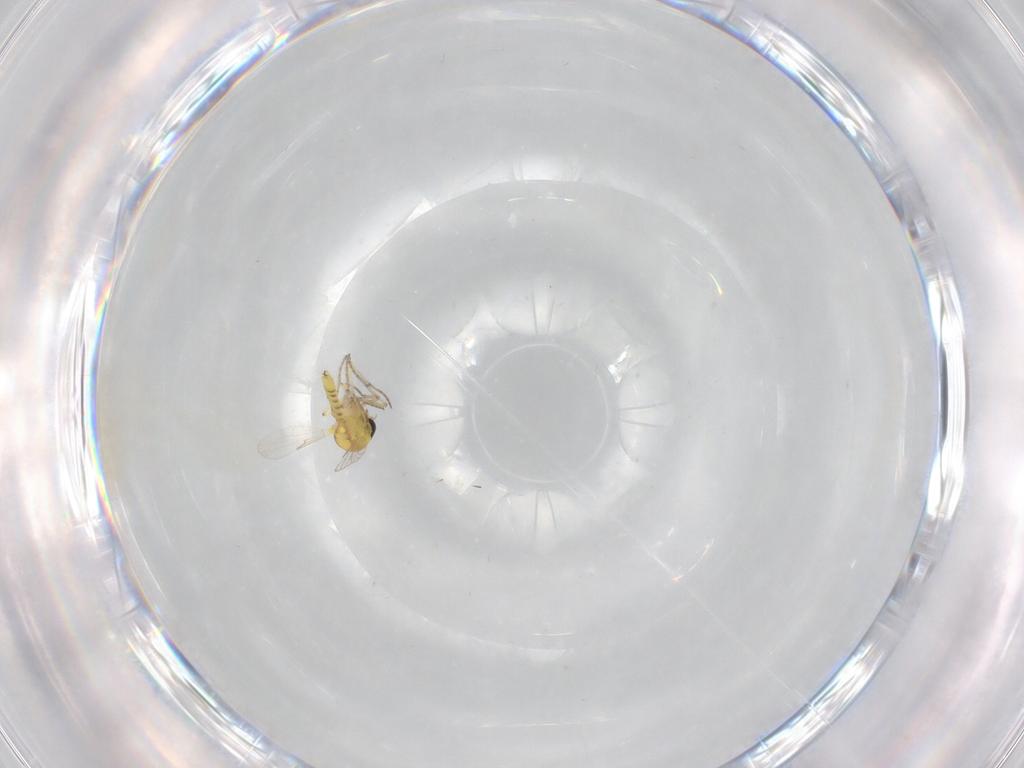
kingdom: Animalia
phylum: Arthropoda
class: Insecta
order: Diptera
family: Ceratopogonidae
